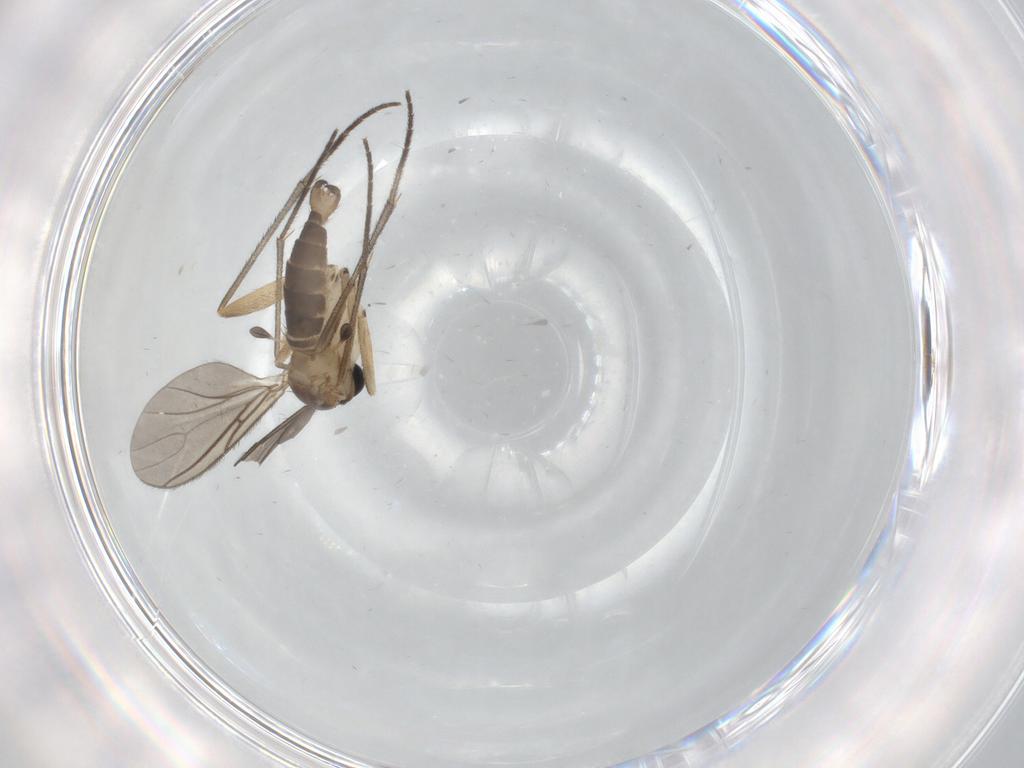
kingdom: Animalia
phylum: Arthropoda
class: Insecta
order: Diptera
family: Sciaridae
